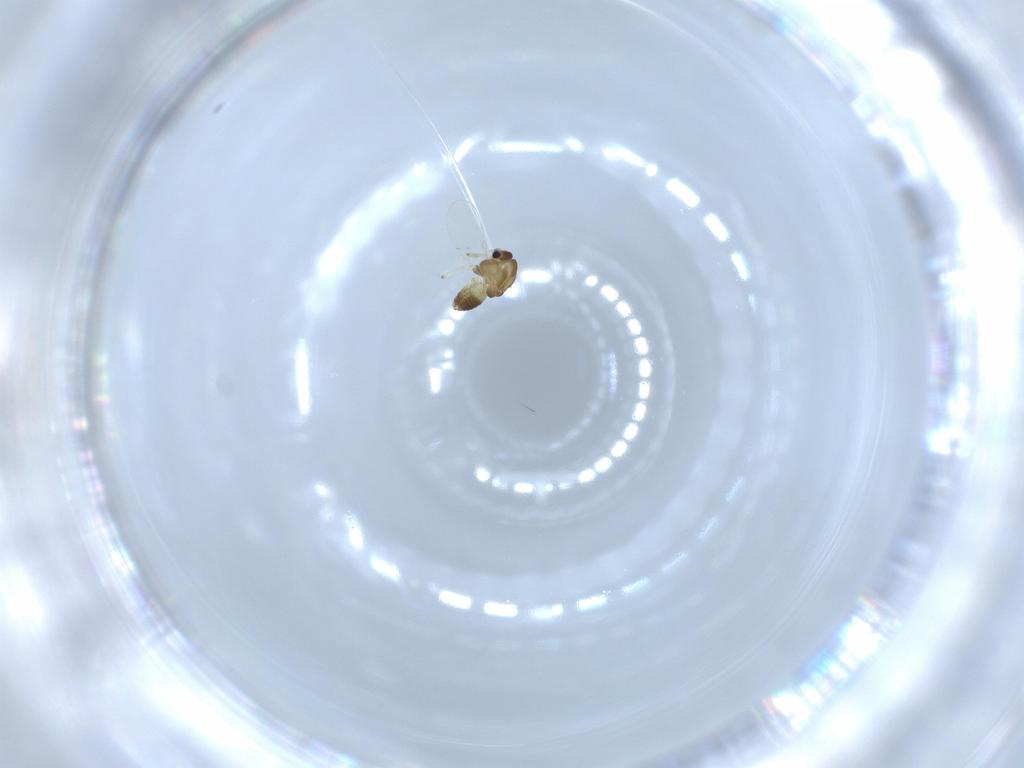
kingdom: Animalia
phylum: Arthropoda
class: Insecta
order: Diptera
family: Chironomidae
